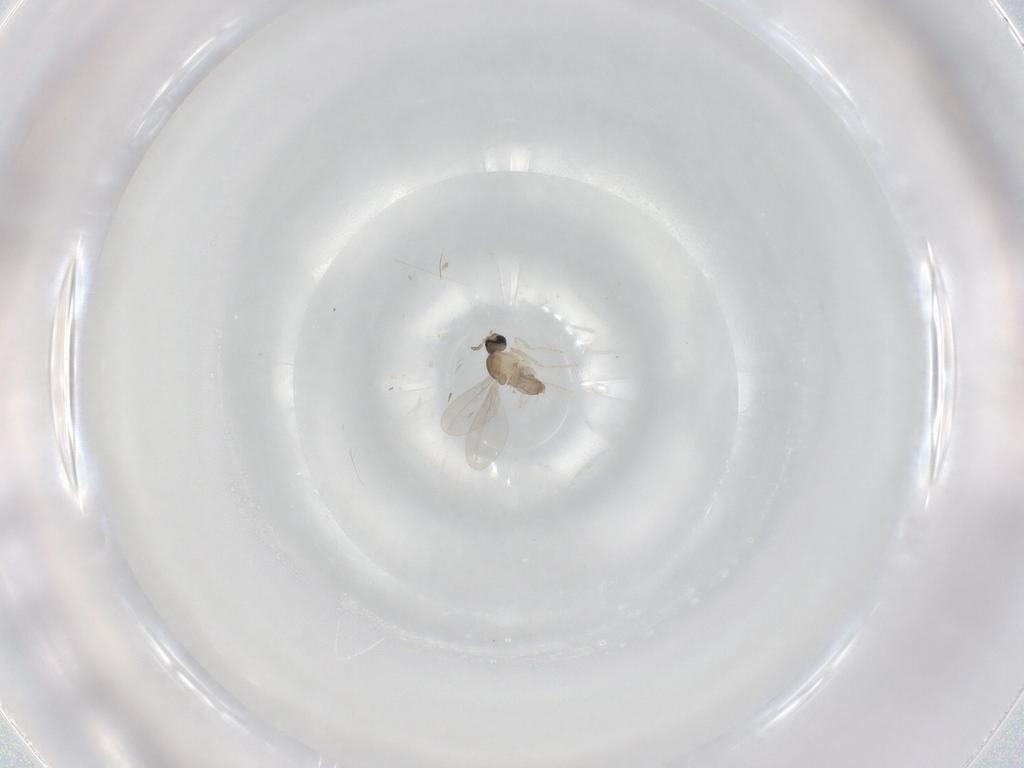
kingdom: Animalia
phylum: Arthropoda
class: Insecta
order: Diptera
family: Cecidomyiidae
